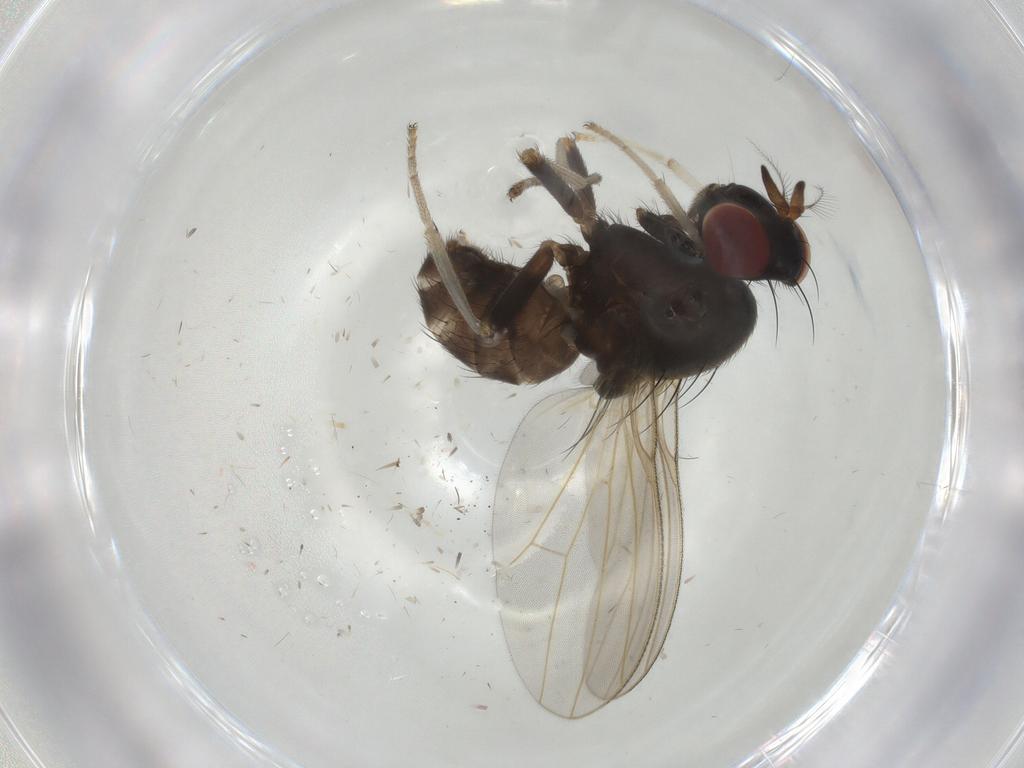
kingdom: Animalia
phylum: Arthropoda
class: Insecta
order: Diptera
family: Lauxaniidae
